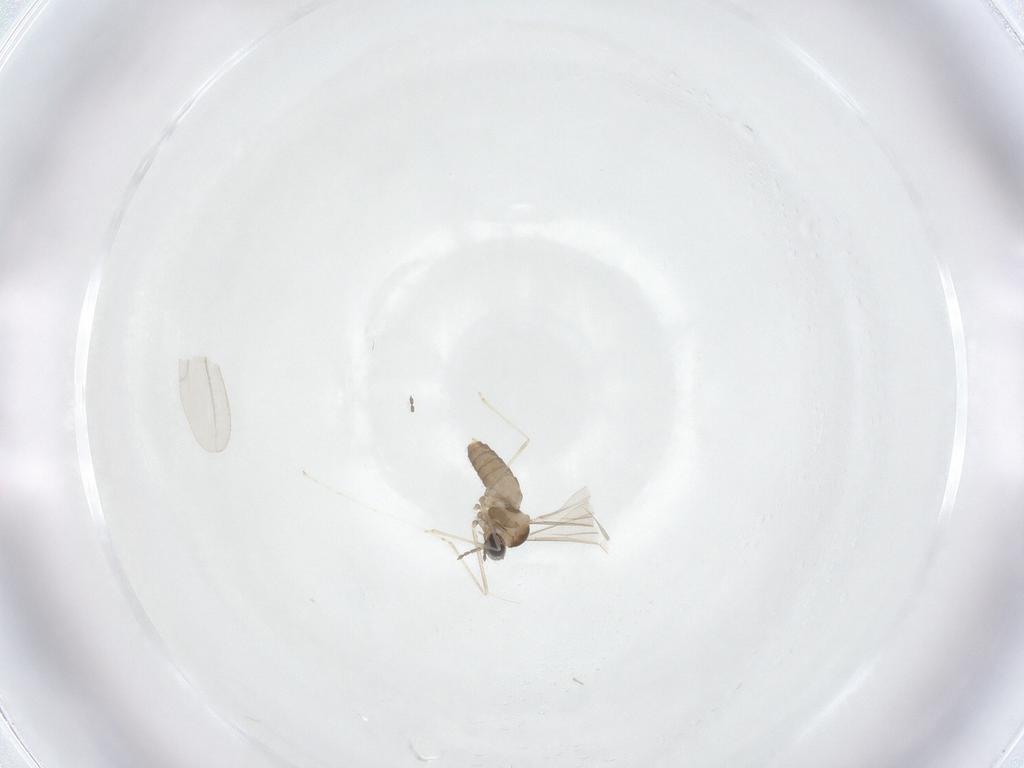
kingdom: Animalia
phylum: Arthropoda
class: Insecta
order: Diptera
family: Cecidomyiidae
